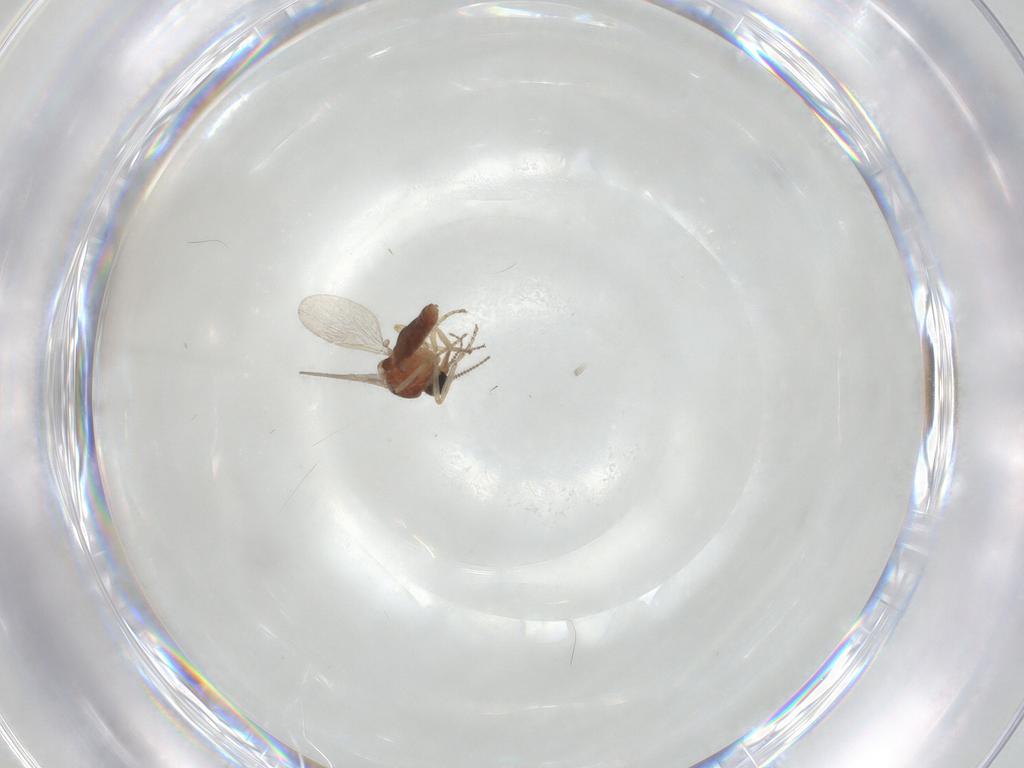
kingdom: Animalia
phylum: Arthropoda
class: Insecta
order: Diptera
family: Ceratopogonidae
